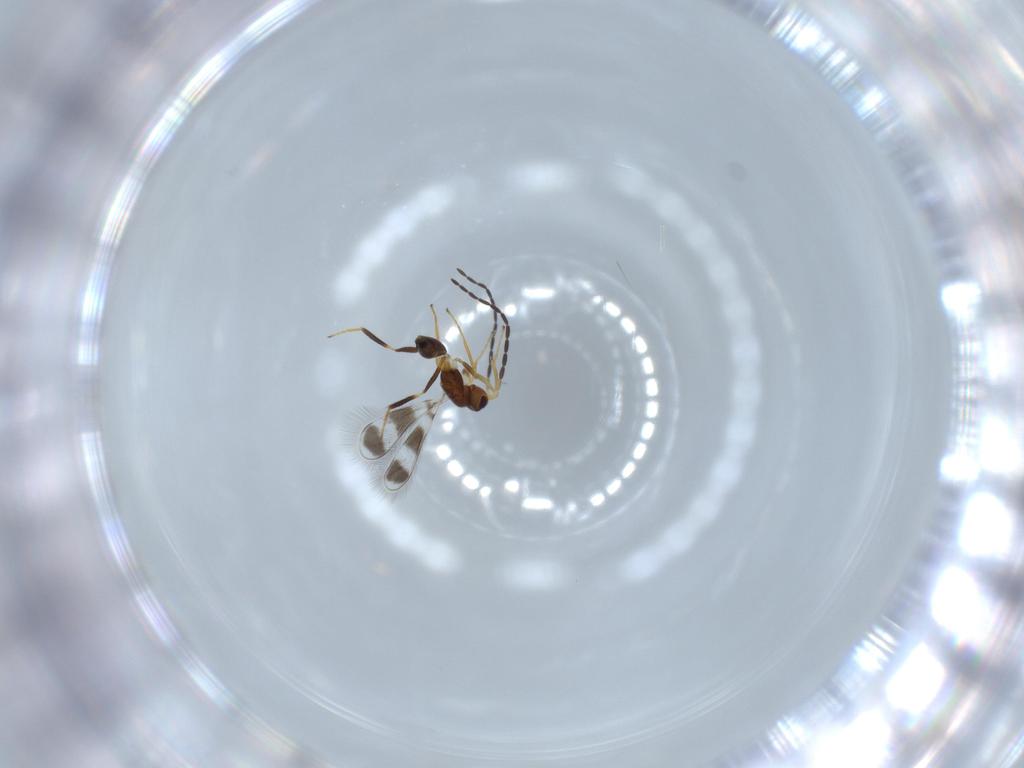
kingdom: Animalia
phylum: Arthropoda
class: Insecta
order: Hymenoptera
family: Mymaridae
